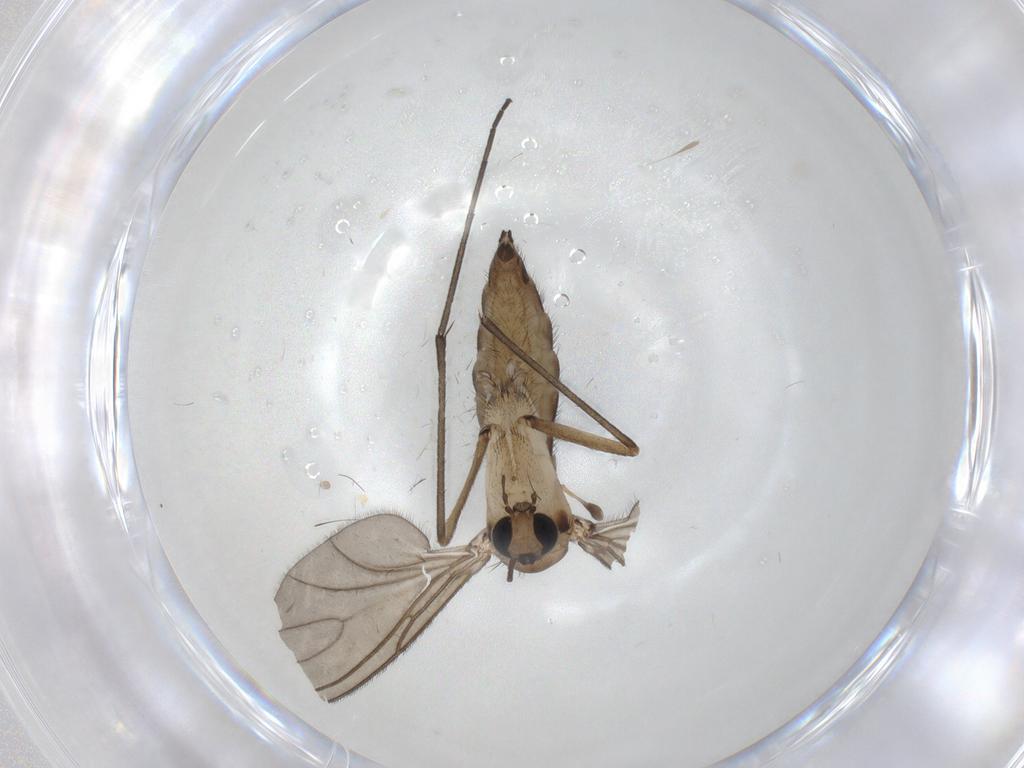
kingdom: Animalia
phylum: Arthropoda
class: Insecta
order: Diptera
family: Sciaridae
